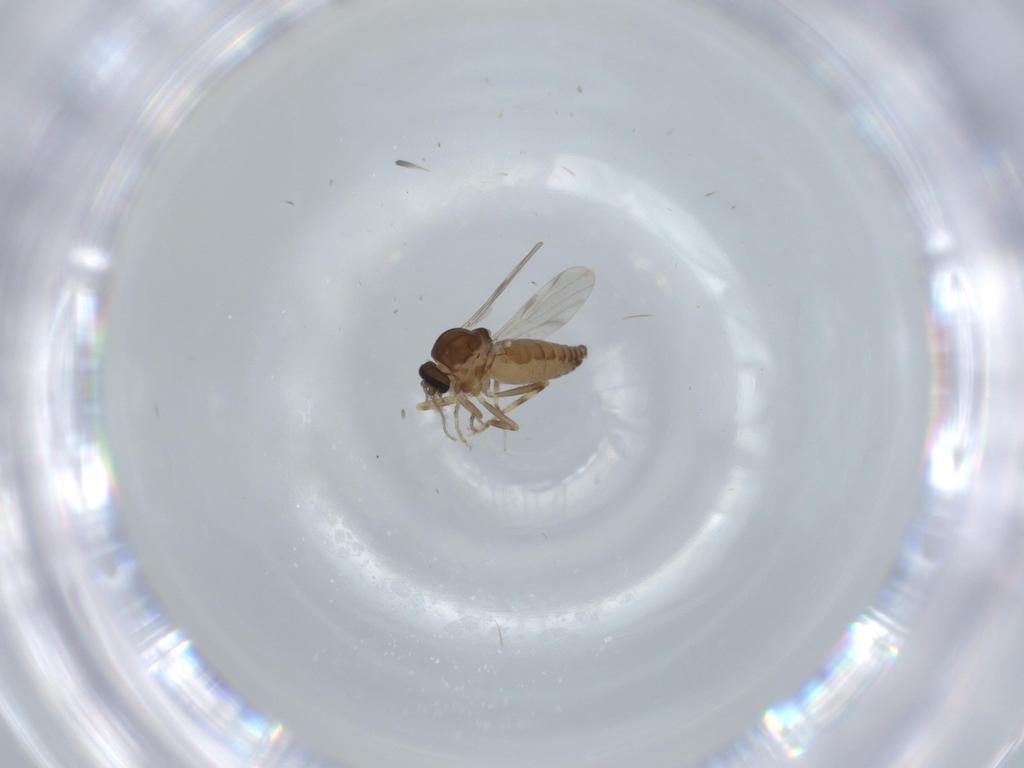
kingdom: Animalia
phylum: Arthropoda
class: Insecta
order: Diptera
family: Ceratopogonidae
